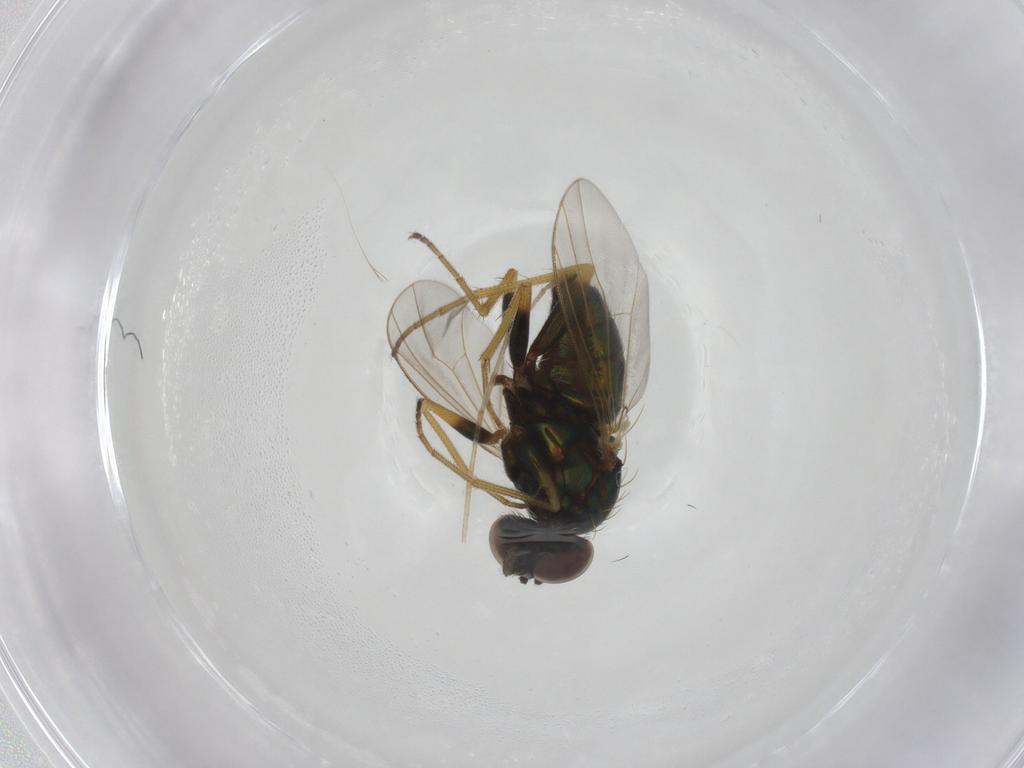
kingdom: Animalia
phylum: Arthropoda
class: Insecta
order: Diptera
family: Dolichopodidae
